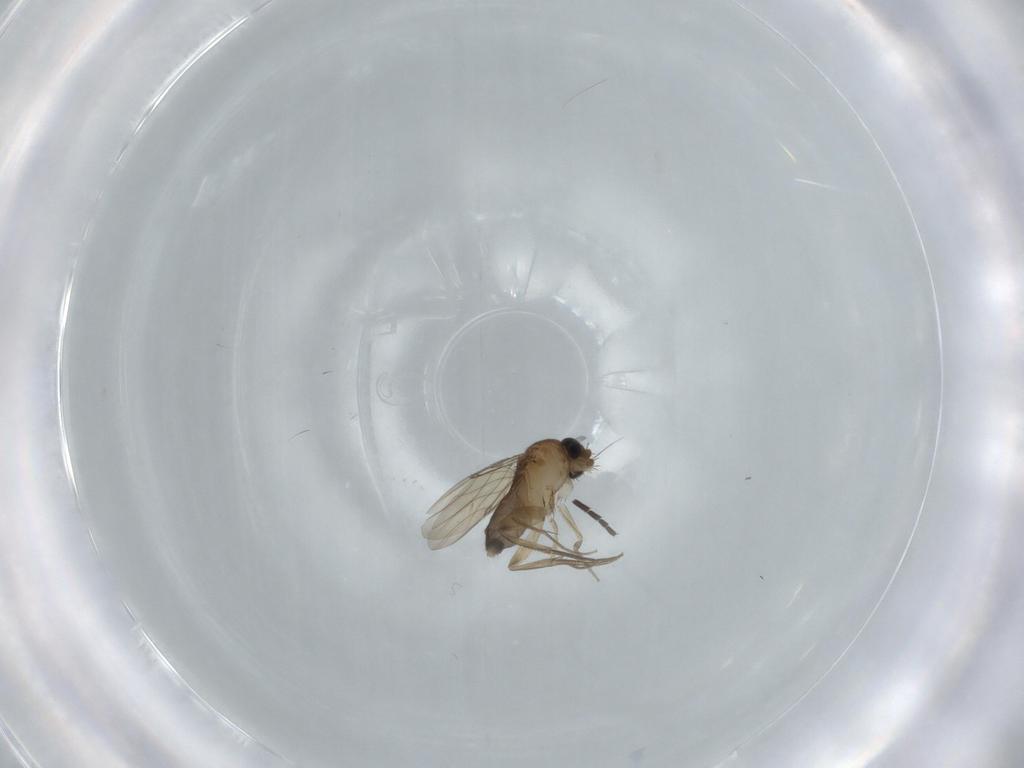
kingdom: Animalia
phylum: Arthropoda
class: Insecta
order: Diptera
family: Phoridae
